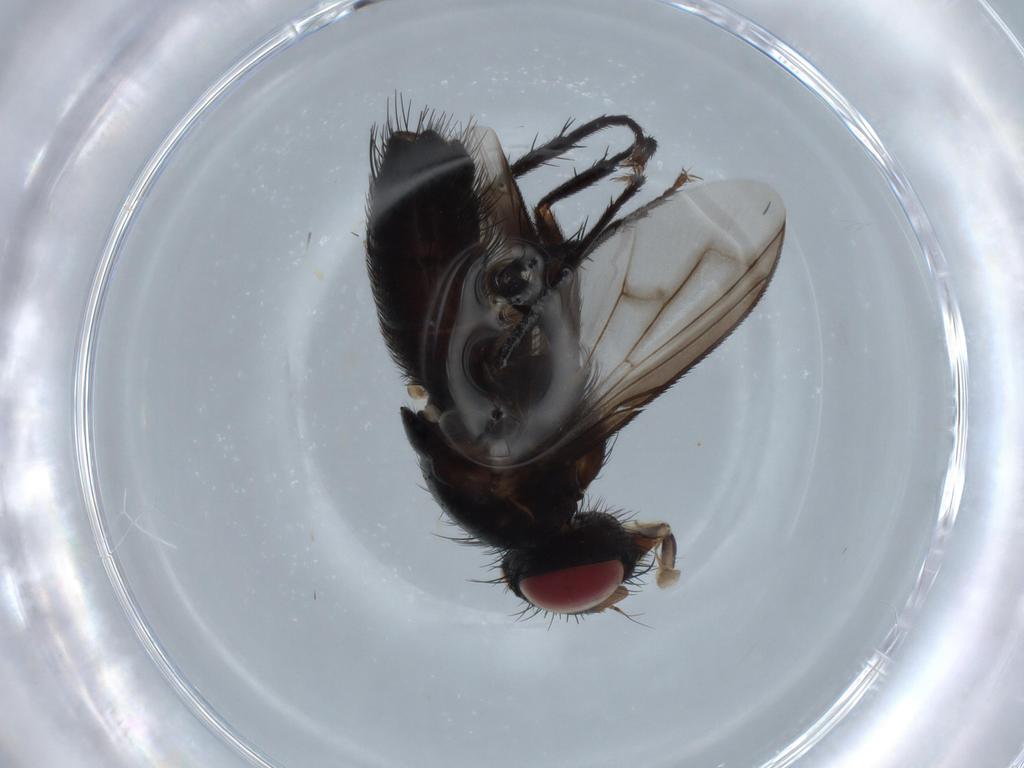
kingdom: Animalia
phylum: Arthropoda
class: Insecta
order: Diptera
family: Tachinidae
